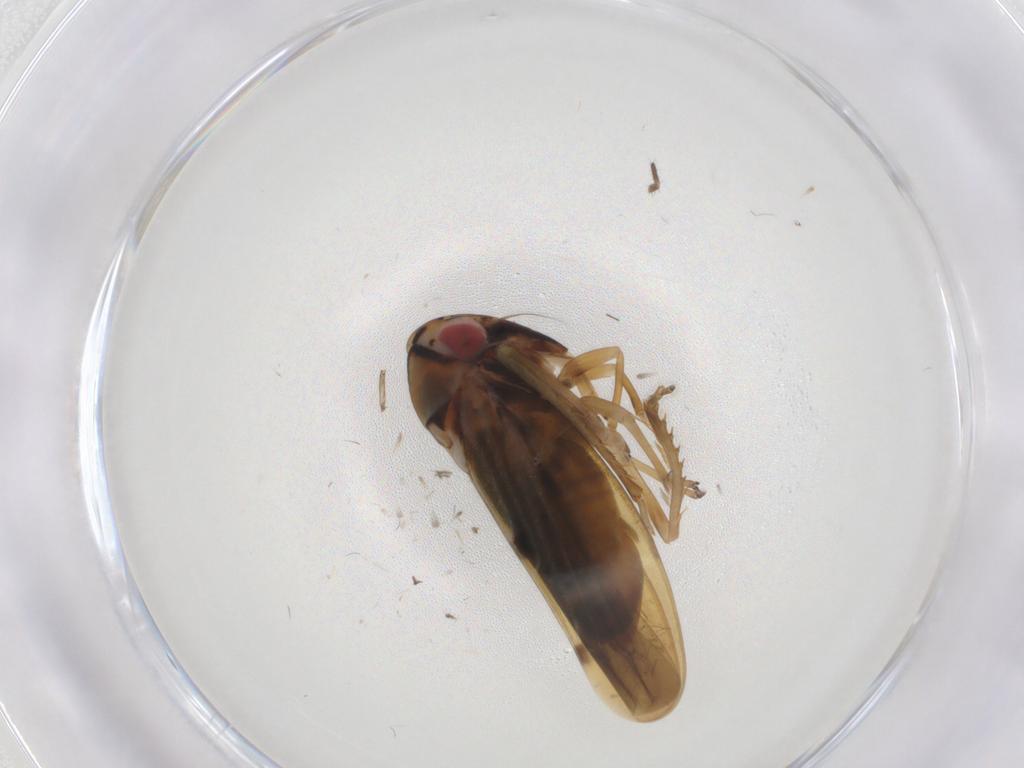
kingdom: Animalia
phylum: Arthropoda
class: Insecta
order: Hemiptera
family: Cicadellidae
